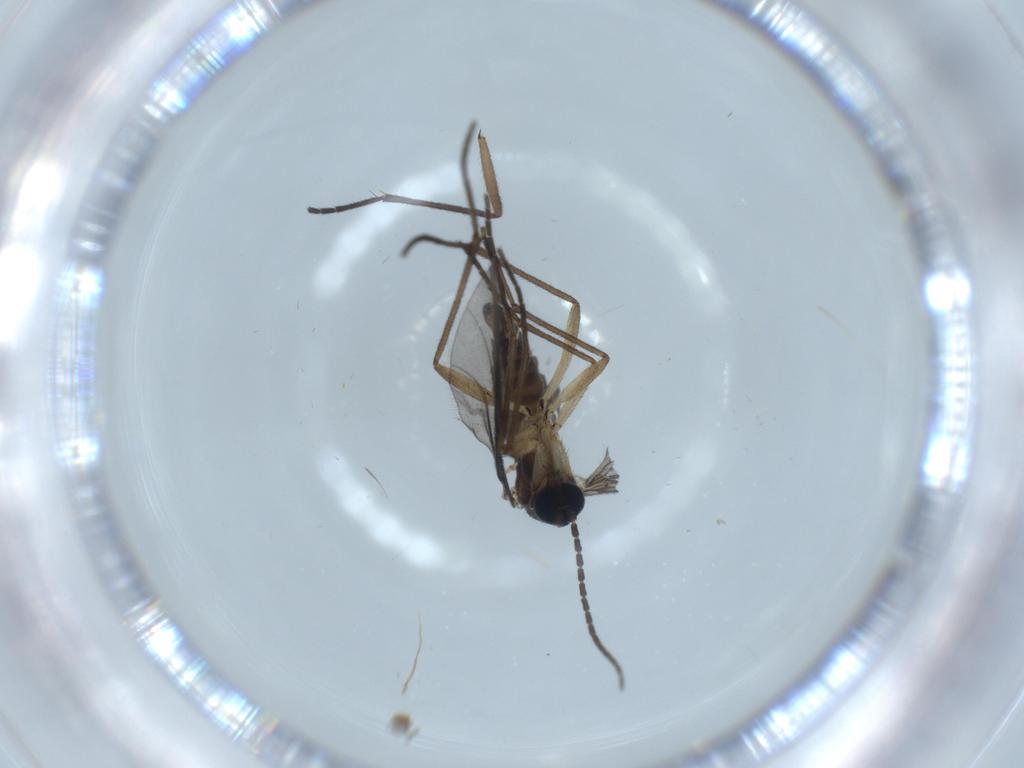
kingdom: Animalia
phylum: Arthropoda
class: Insecta
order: Diptera
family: Sciaridae
